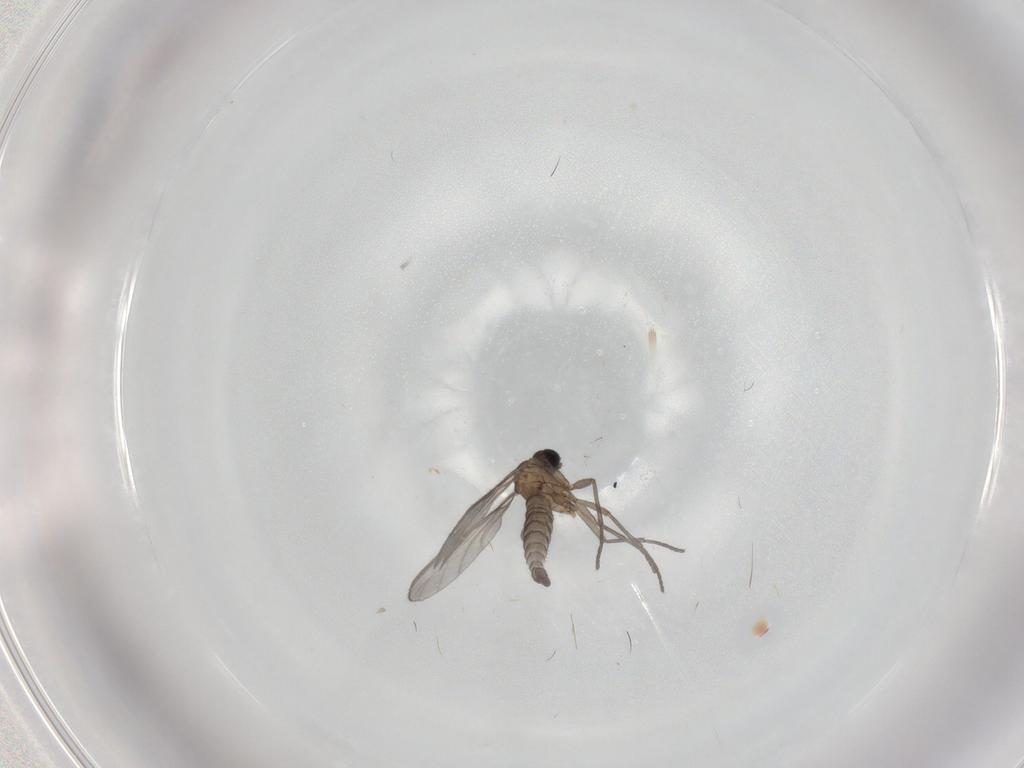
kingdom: Animalia
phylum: Arthropoda
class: Insecta
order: Diptera
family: Sciaridae
